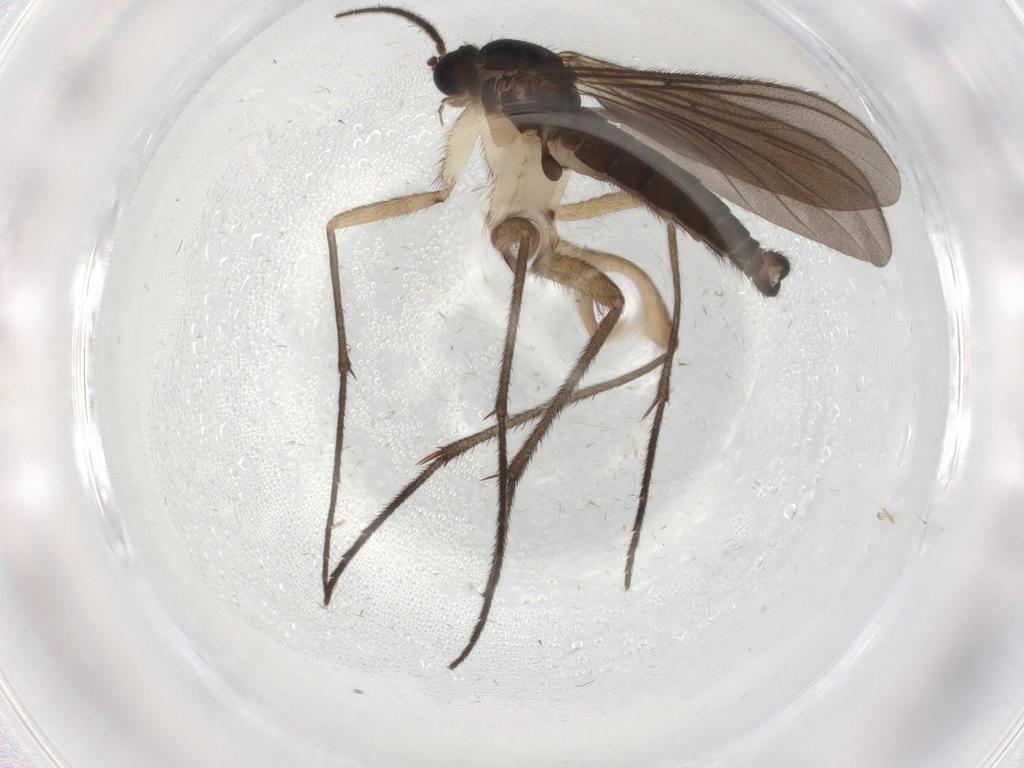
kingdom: Animalia
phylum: Arthropoda
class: Insecta
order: Diptera
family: Sciaridae
